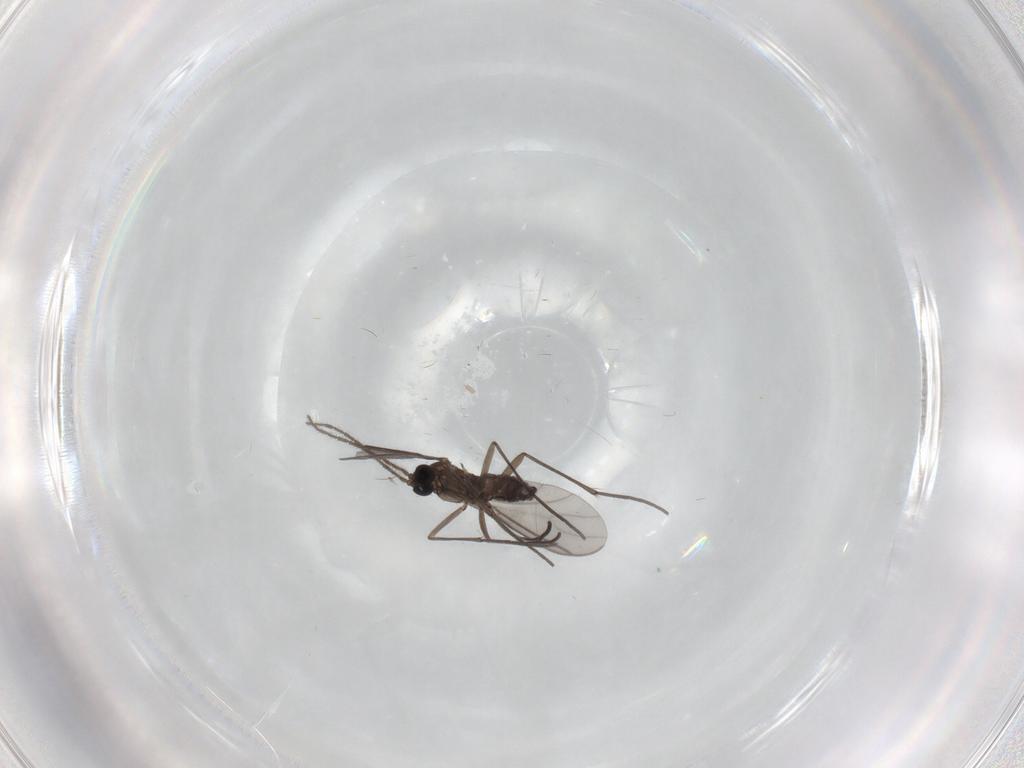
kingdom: Animalia
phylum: Arthropoda
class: Insecta
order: Diptera
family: Sciaridae
